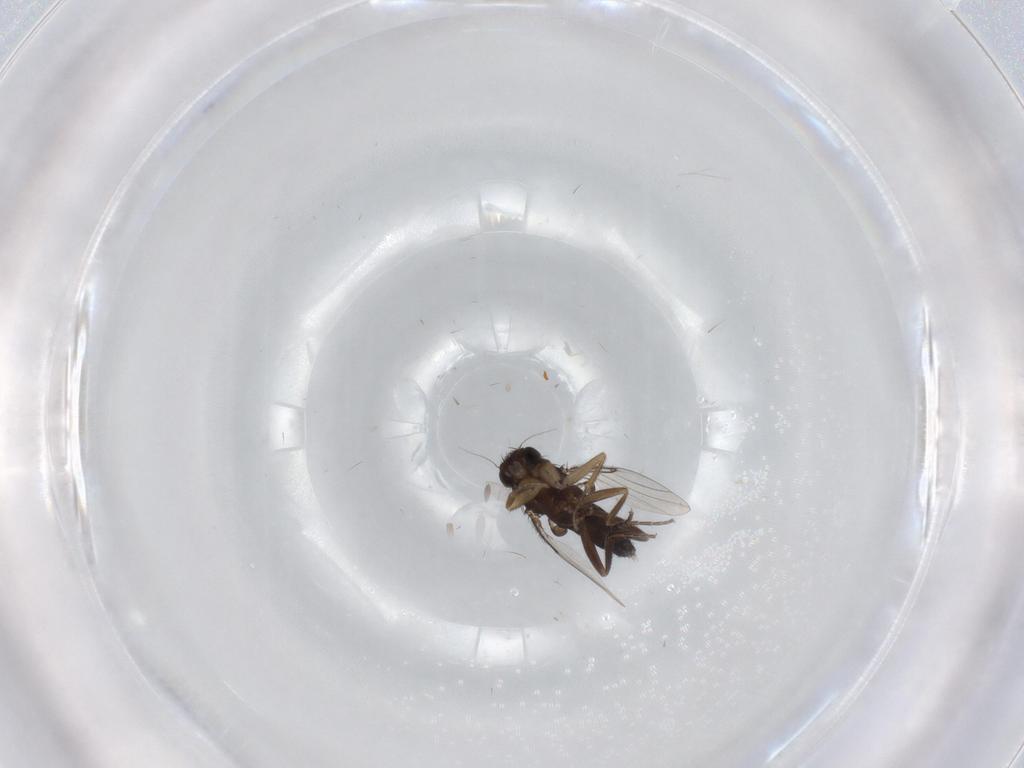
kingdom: Animalia
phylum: Arthropoda
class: Insecta
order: Diptera
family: Phoridae
